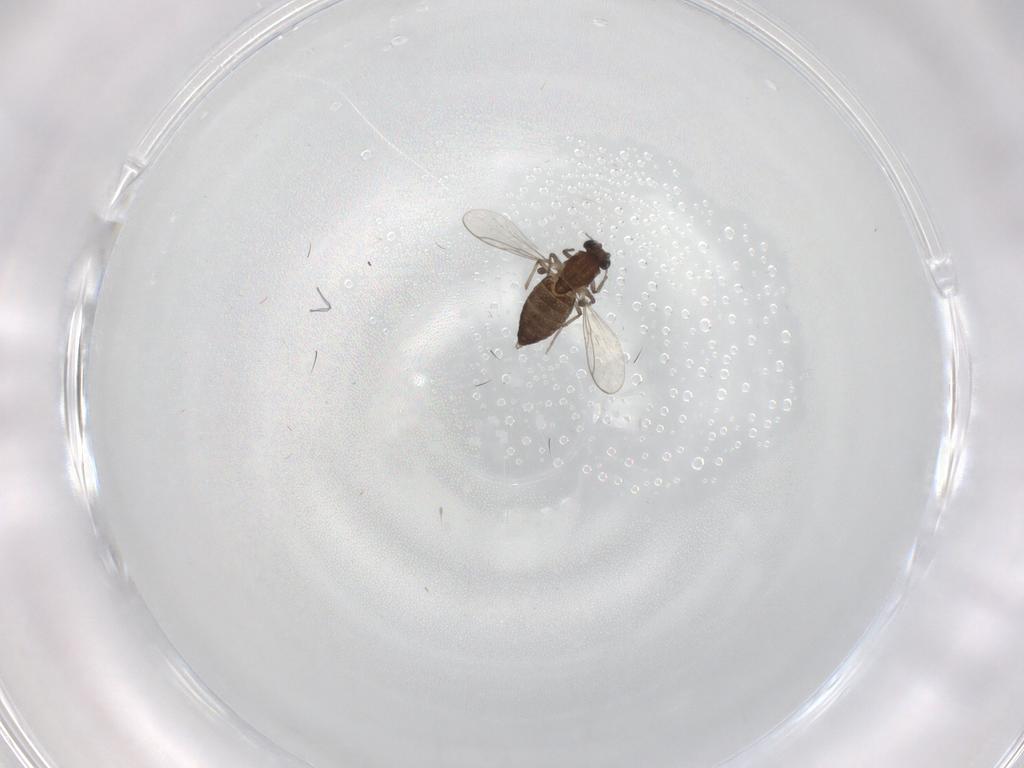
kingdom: Animalia
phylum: Arthropoda
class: Insecta
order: Diptera
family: Chironomidae
